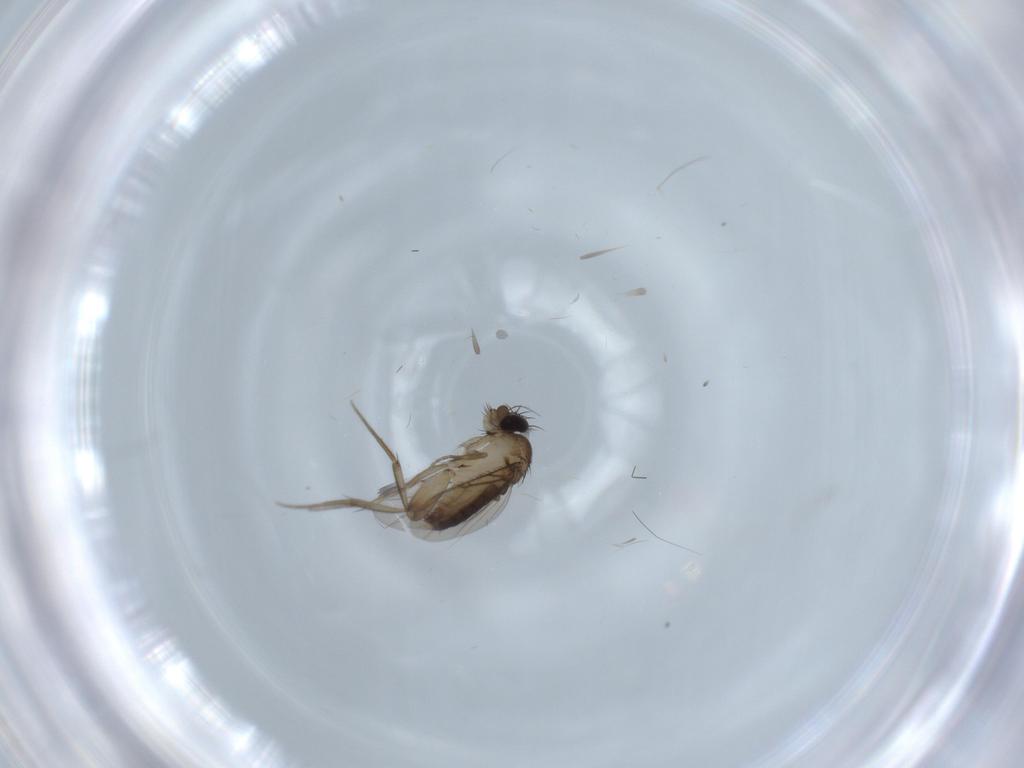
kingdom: Animalia
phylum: Arthropoda
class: Insecta
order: Diptera
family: Phoridae
